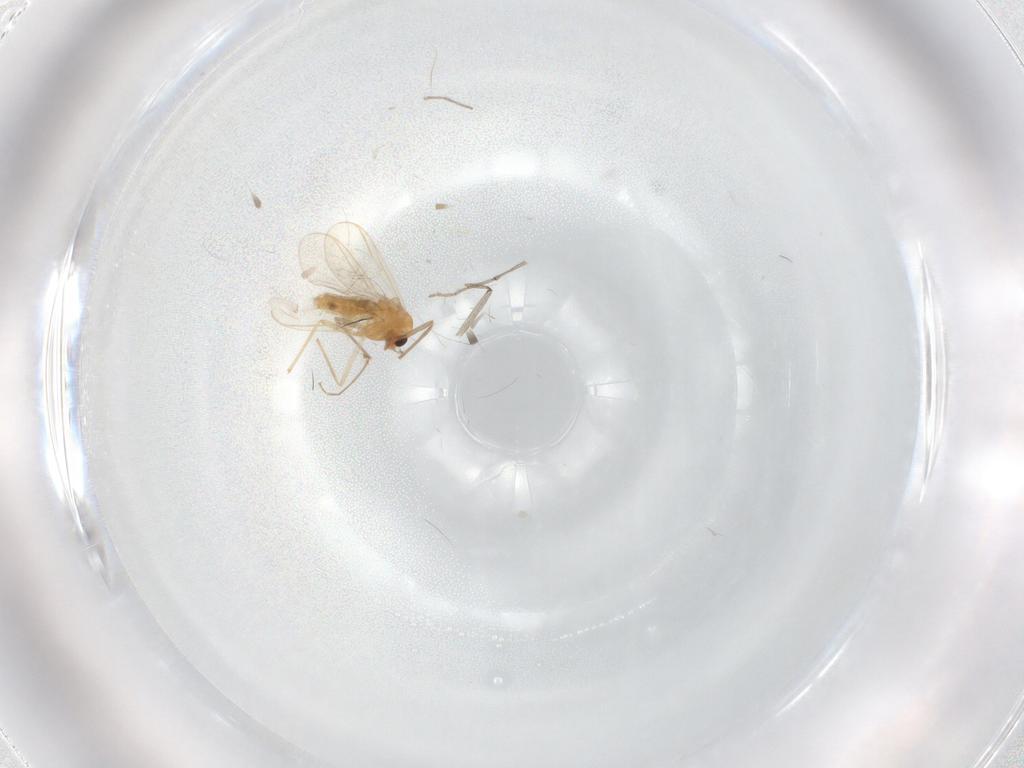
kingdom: Animalia
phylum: Arthropoda
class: Insecta
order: Diptera
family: Chironomidae
